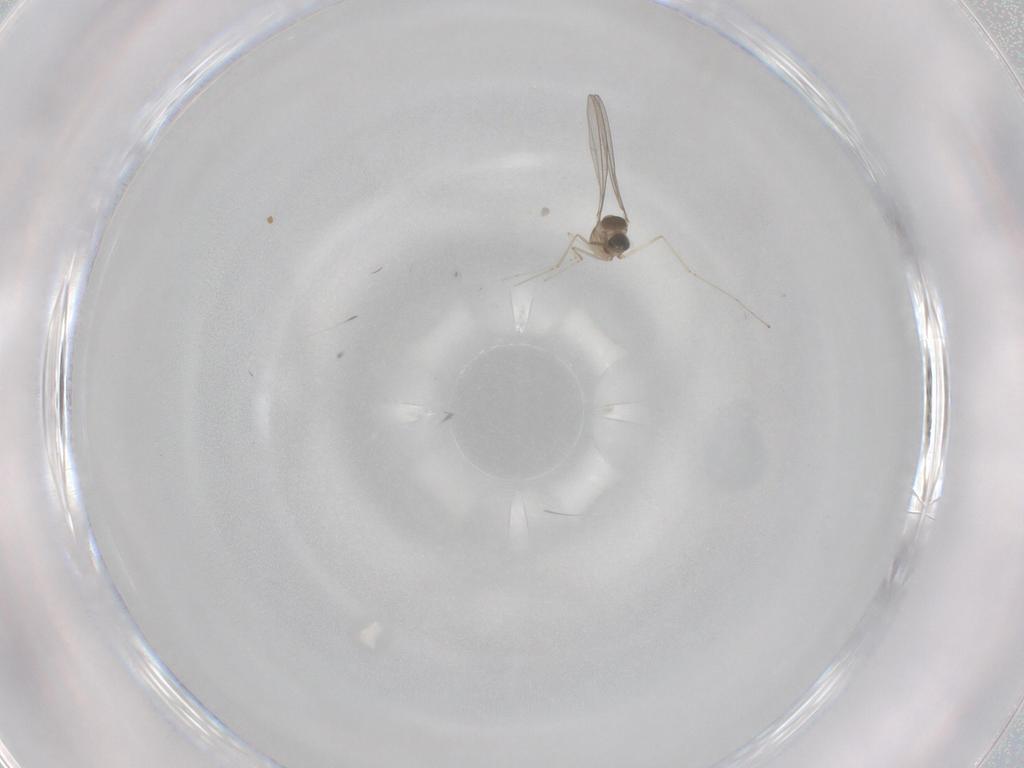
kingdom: Animalia
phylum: Arthropoda
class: Insecta
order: Diptera
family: Cecidomyiidae
